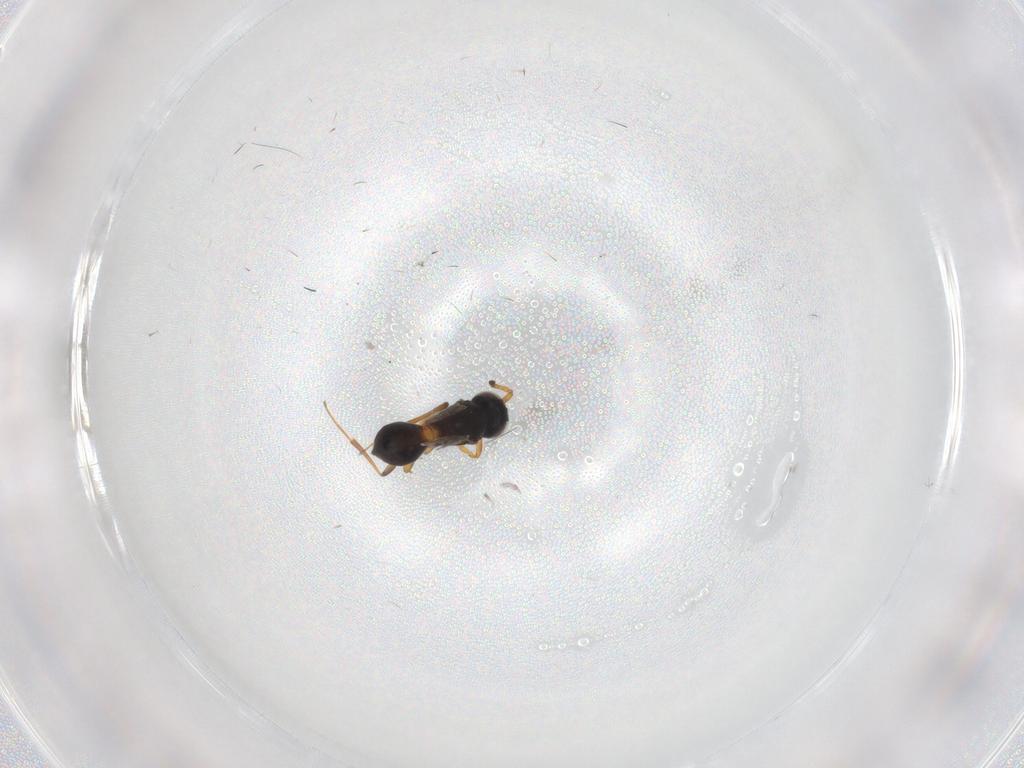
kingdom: Animalia
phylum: Arthropoda
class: Insecta
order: Hymenoptera
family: Scelionidae
